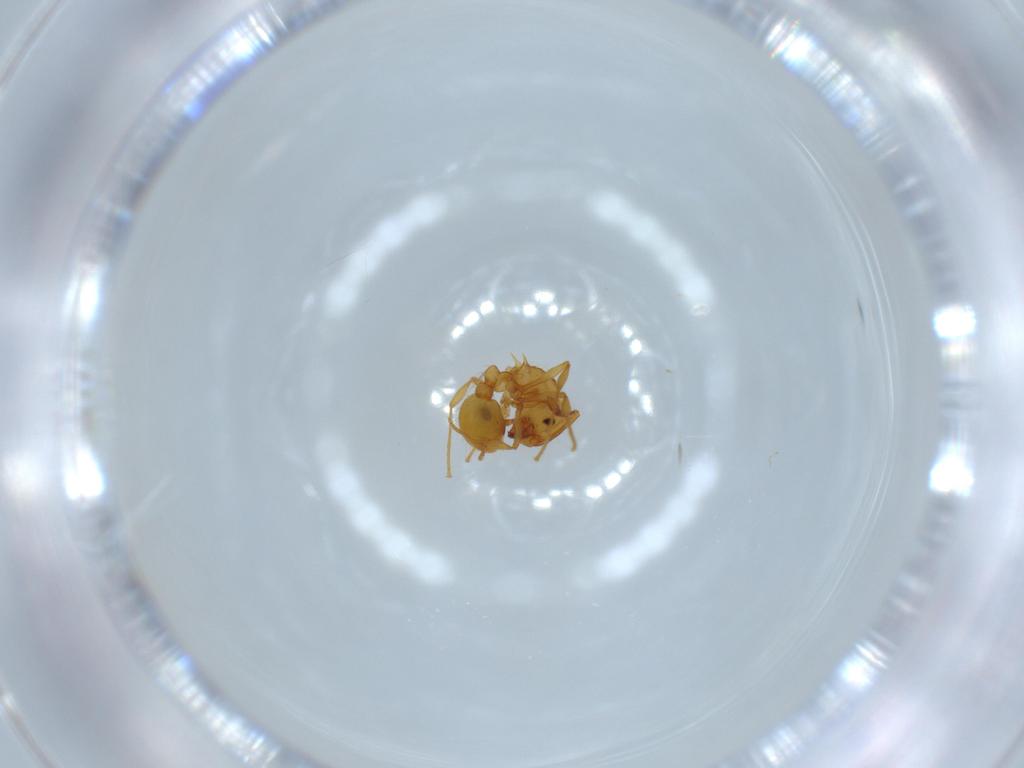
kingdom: Animalia
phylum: Arthropoda
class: Insecta
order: Hymenoptera
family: Formicidae
